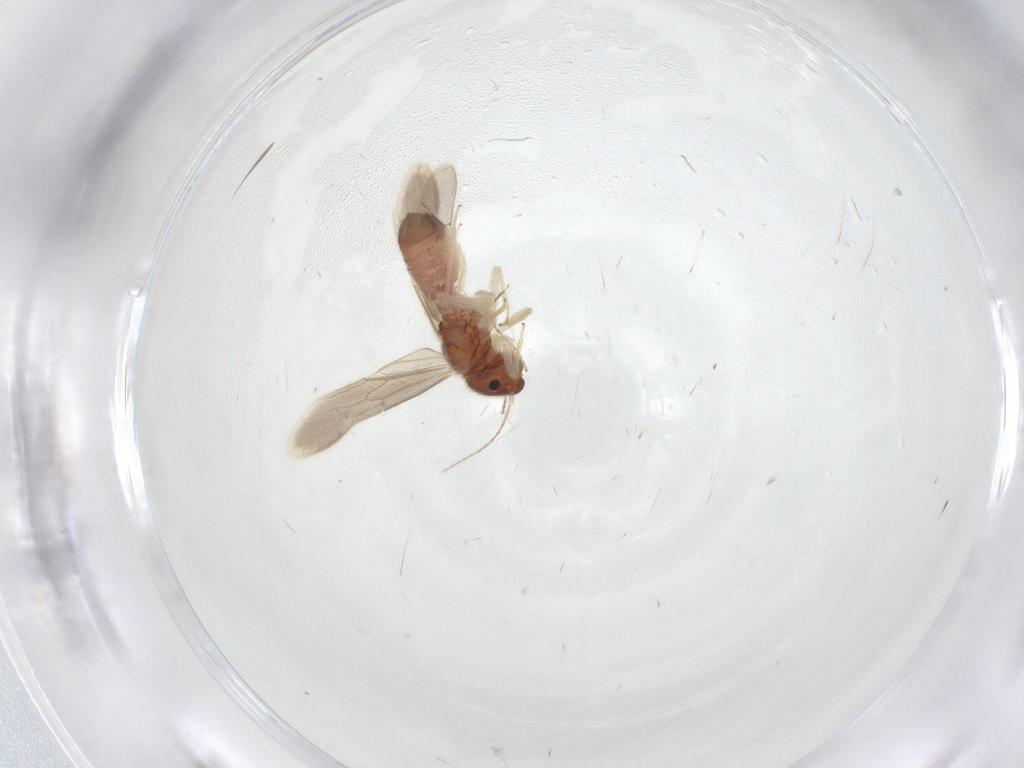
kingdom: Animalia
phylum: Arthropoda
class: Insecta
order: Psocodea
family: Archipsocidae
